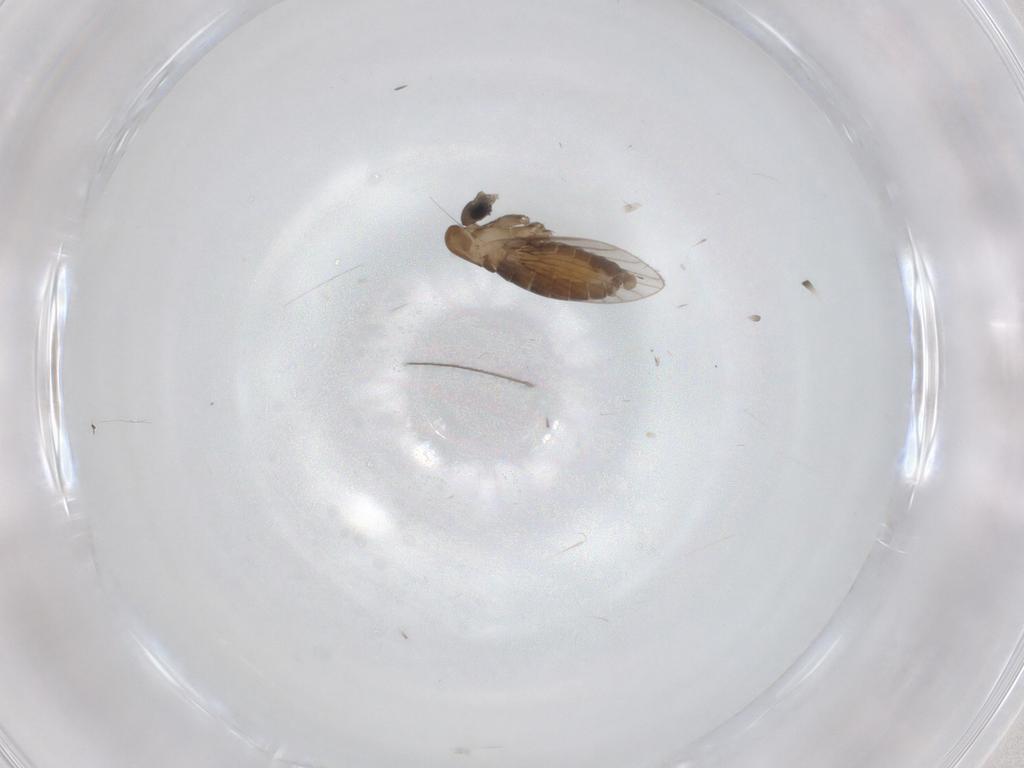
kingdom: Animalia
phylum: Arthropoda
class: Insecta
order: Diptera
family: Psychodidae
